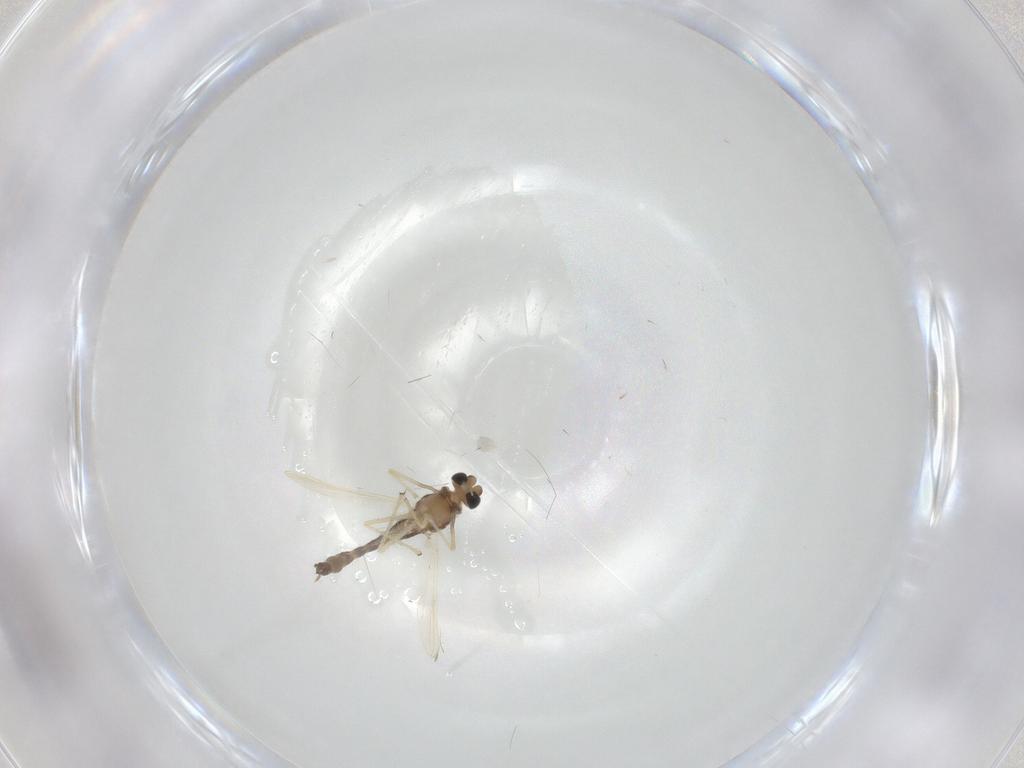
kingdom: Animalia
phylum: Arthropoda
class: Insecta
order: Diptera
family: Chironomidae
